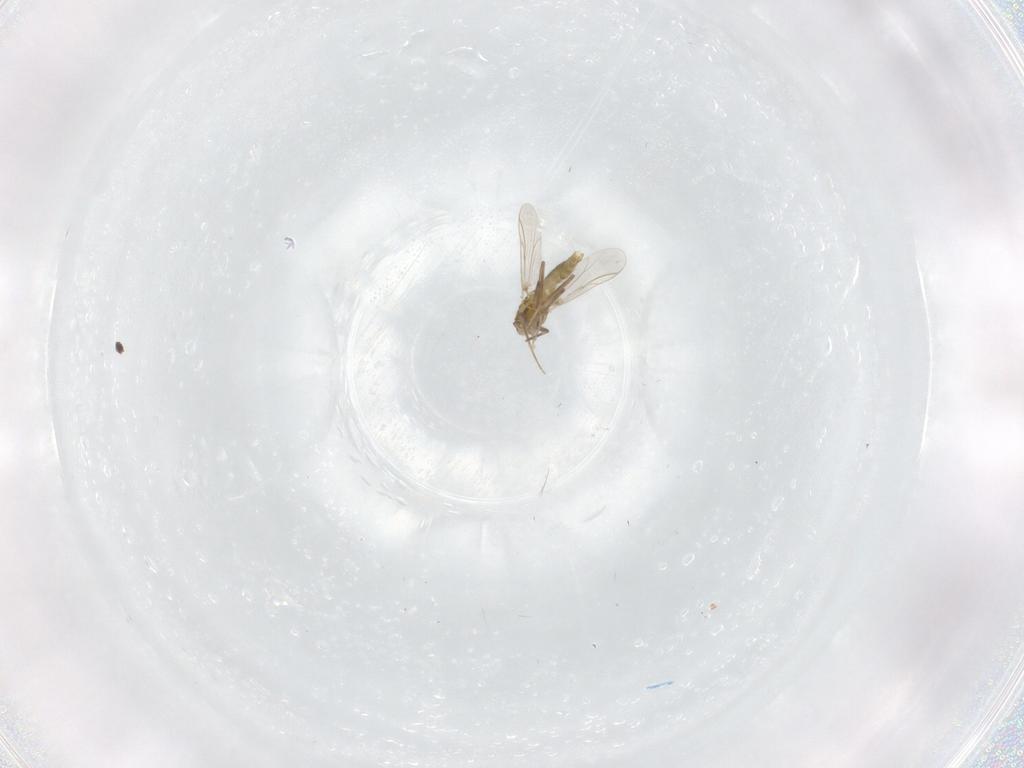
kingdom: Animalia
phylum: Arthropoda
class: Insecta
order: Diptera
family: Chironomidae
